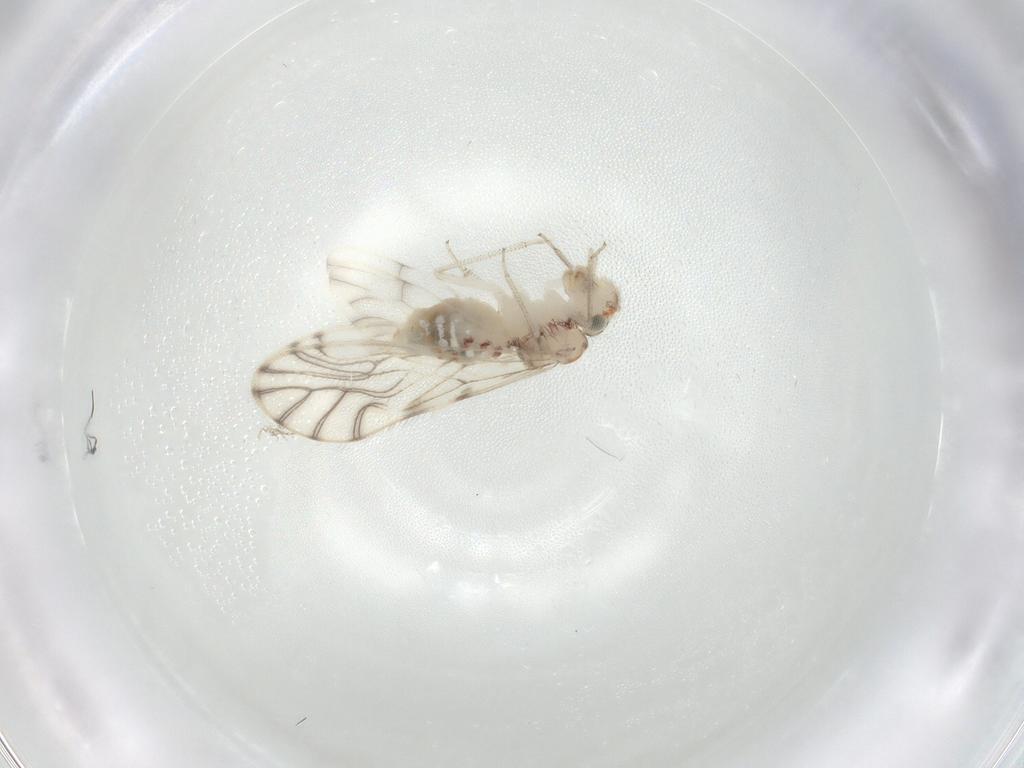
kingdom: Animalia
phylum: Arthropoda
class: Insecta
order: Psocodea
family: Philotarsidae
